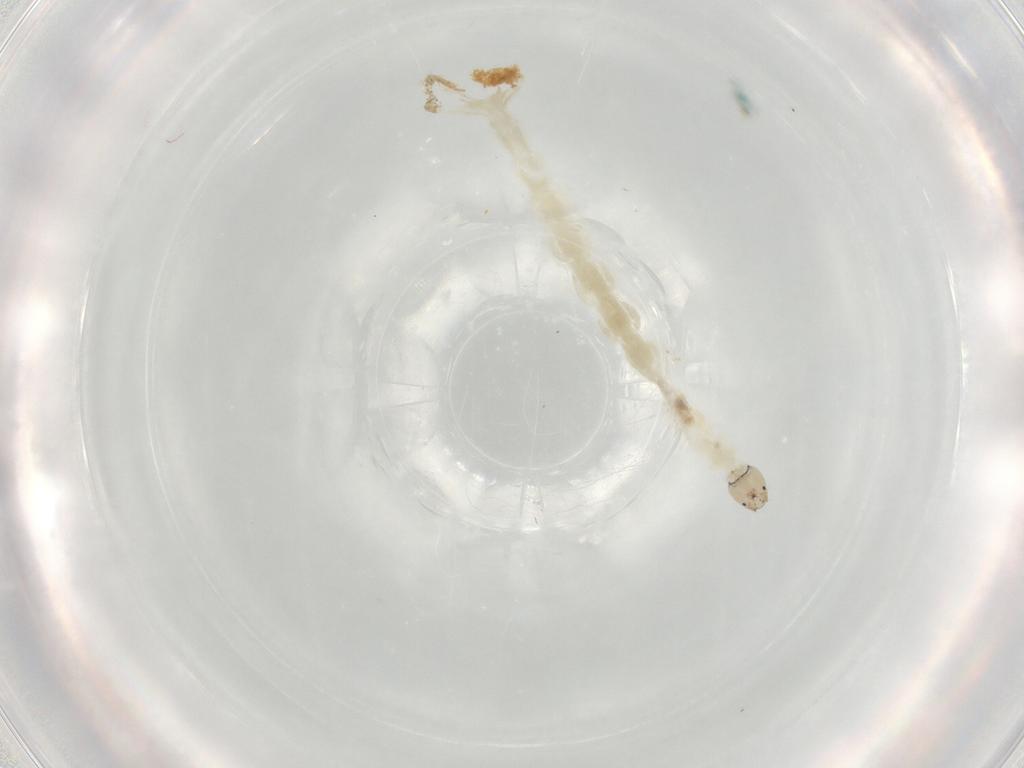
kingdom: Animalia
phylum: Arthropoda
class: Insecta
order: Diptera
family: Chironomidae
